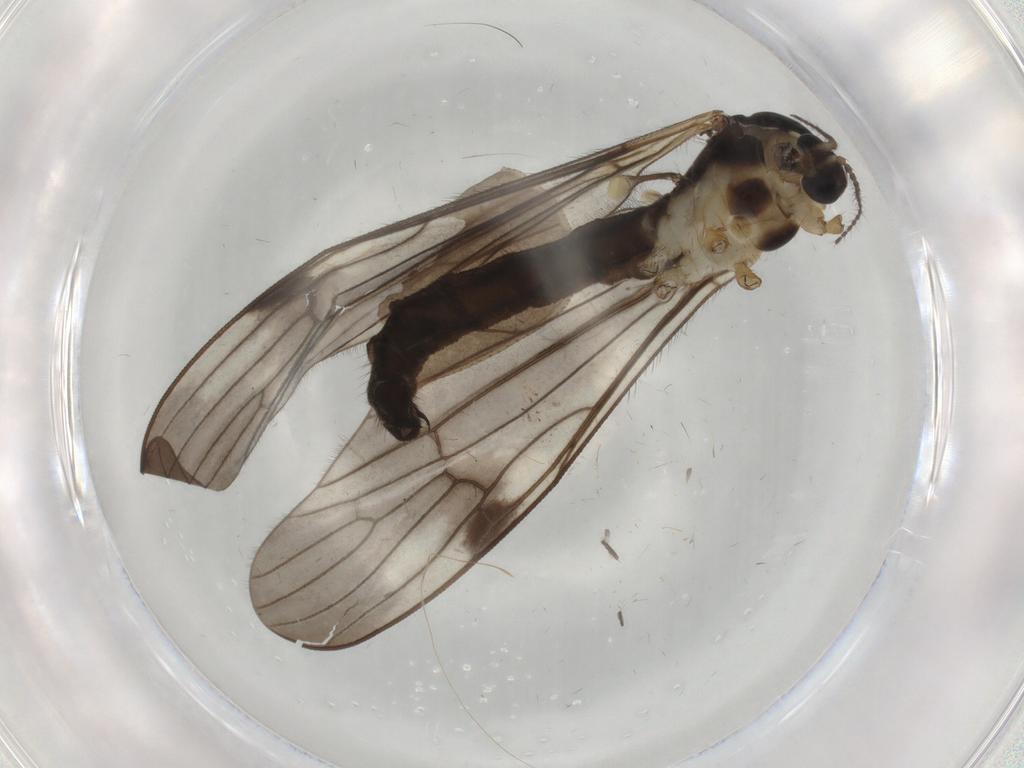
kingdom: Animalia
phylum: Arthropoda
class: Insecta
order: Diptera
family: Limoniidae
